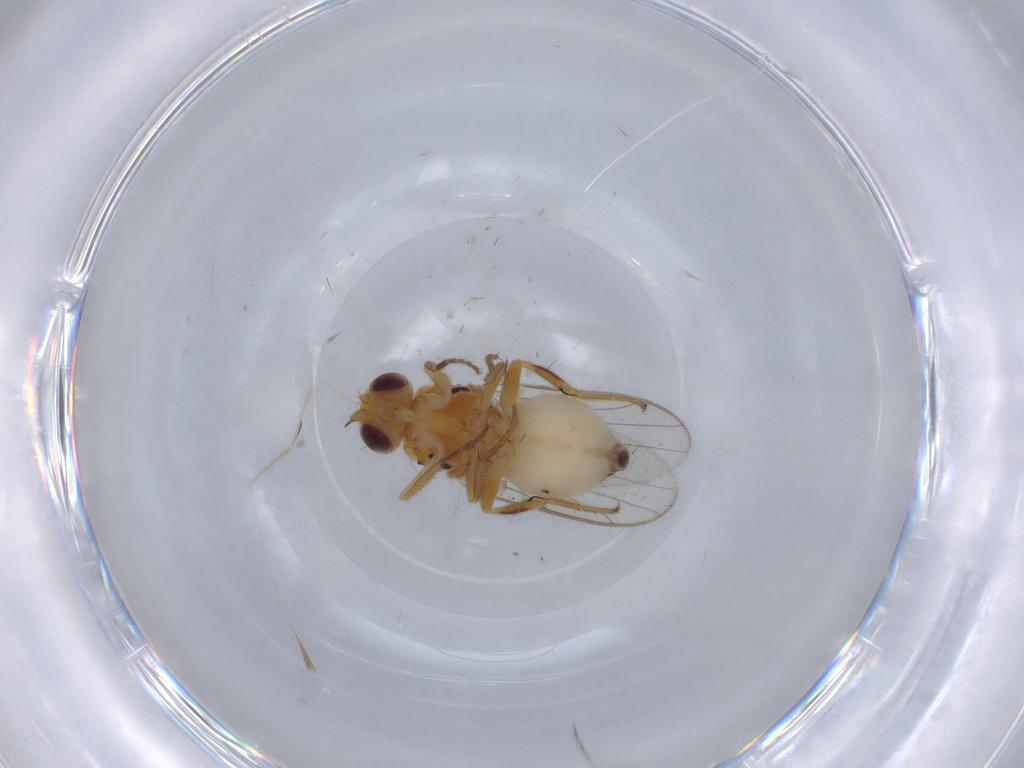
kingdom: Animalia
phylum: Arthropoda
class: Insecta
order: Diptera
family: Chloropidae
